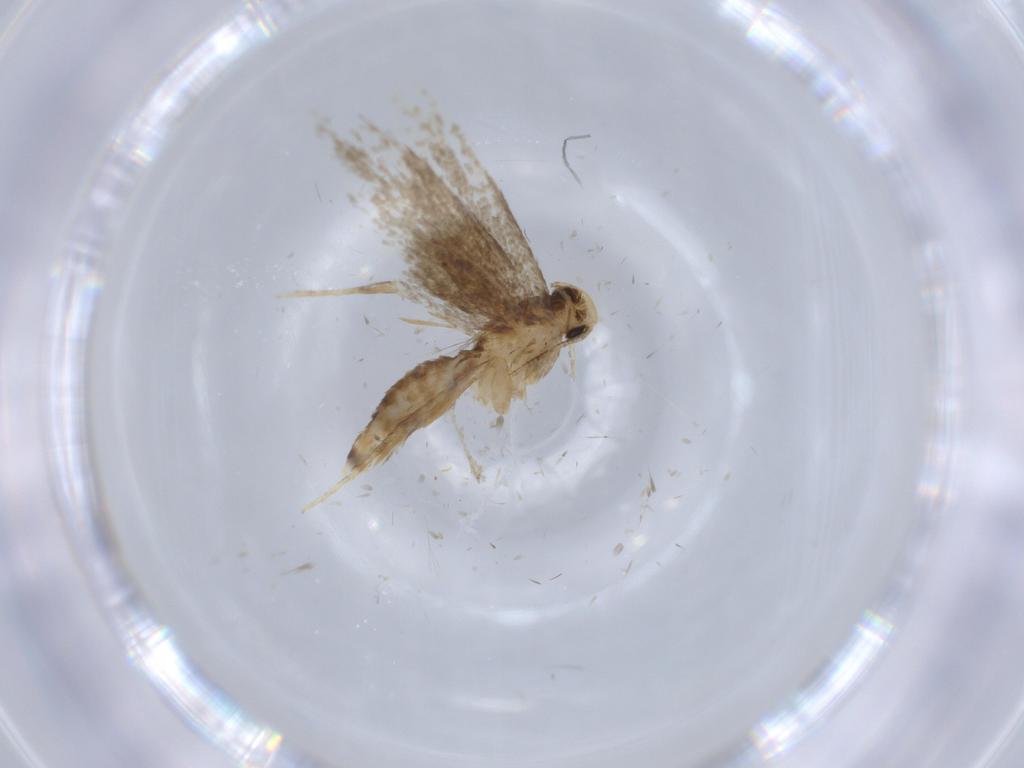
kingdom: Animalia
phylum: Arthropoda
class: Insecta
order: Lepidoptera
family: Tineidae
